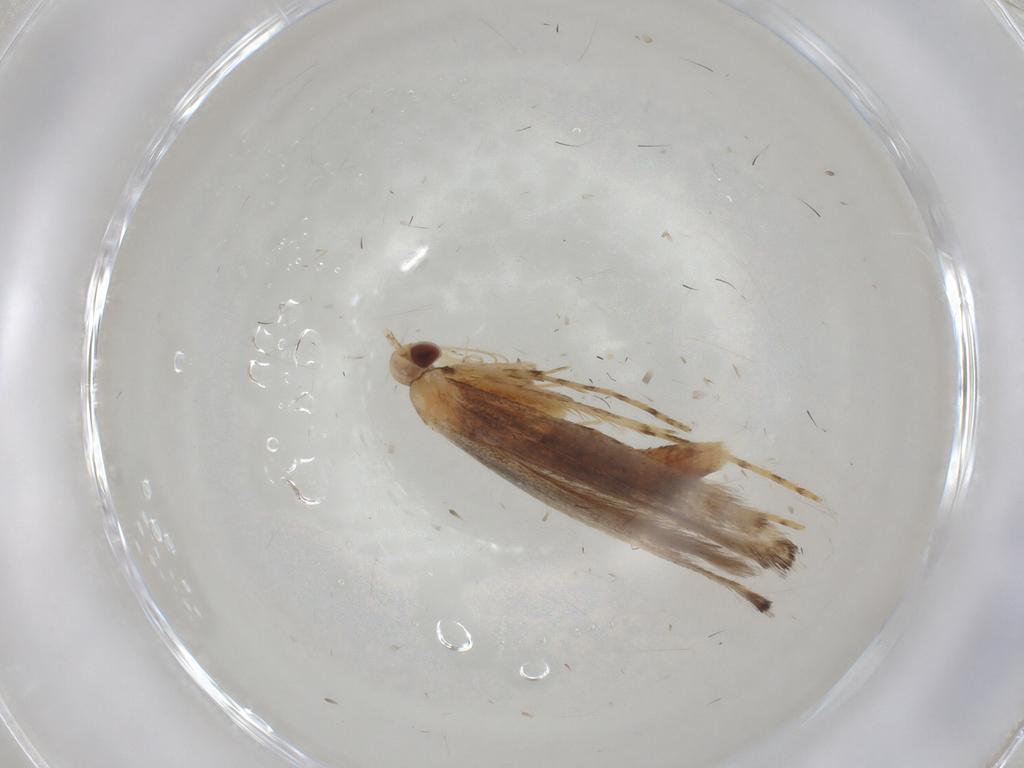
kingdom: Animalia
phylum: Arthropoda
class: Insecta
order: Lepidoptera
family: Gracillariidae
